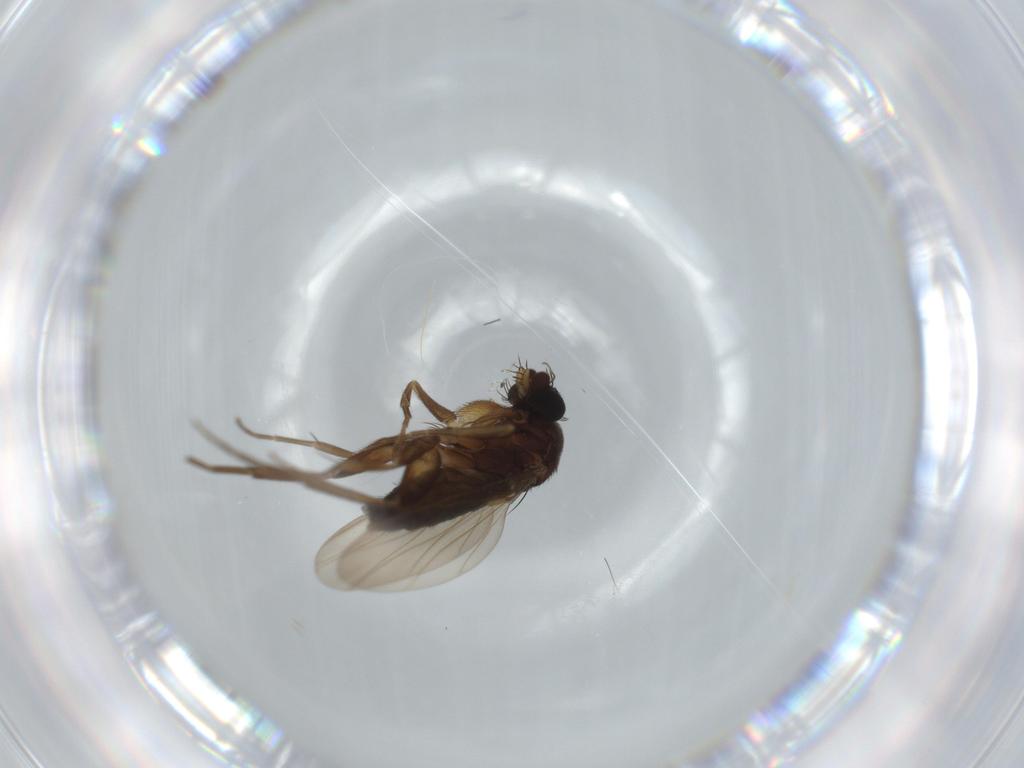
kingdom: Animalia
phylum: Arthropoda
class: Insecta
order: Diptera
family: Phoridae
